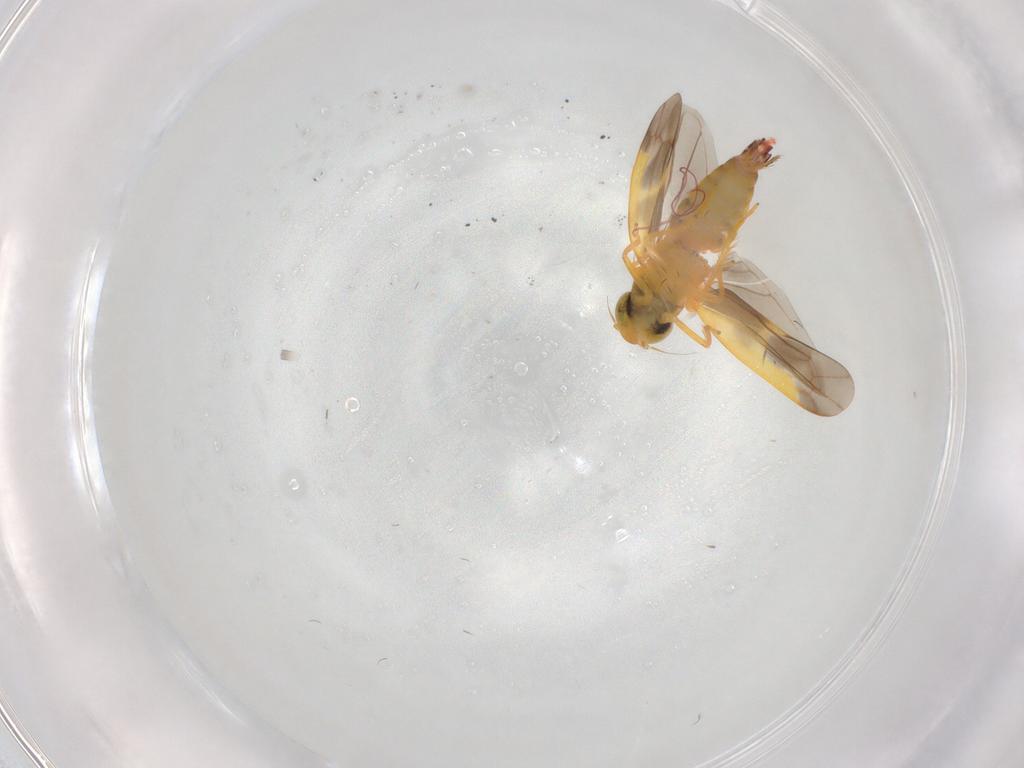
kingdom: Animalia
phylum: Arthropoda
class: Insecta
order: Hemiptera
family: Cicadellidae
